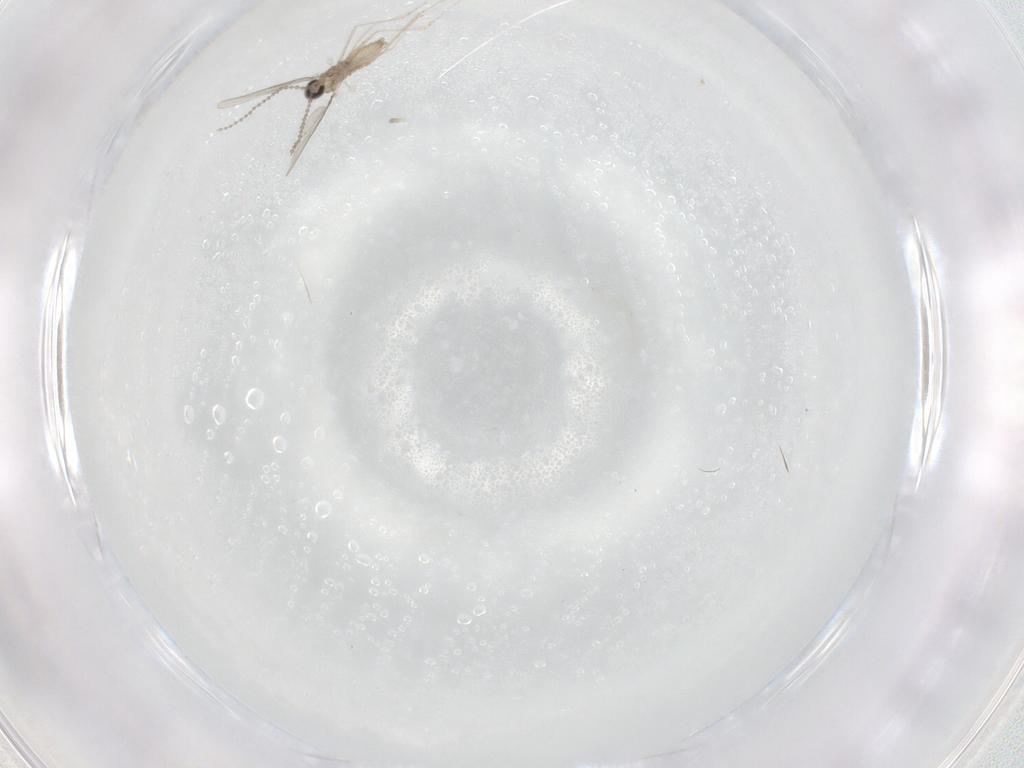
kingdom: Animalia
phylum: Arthropoda
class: Insecta
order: Diptera
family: Cecidomyiidae
